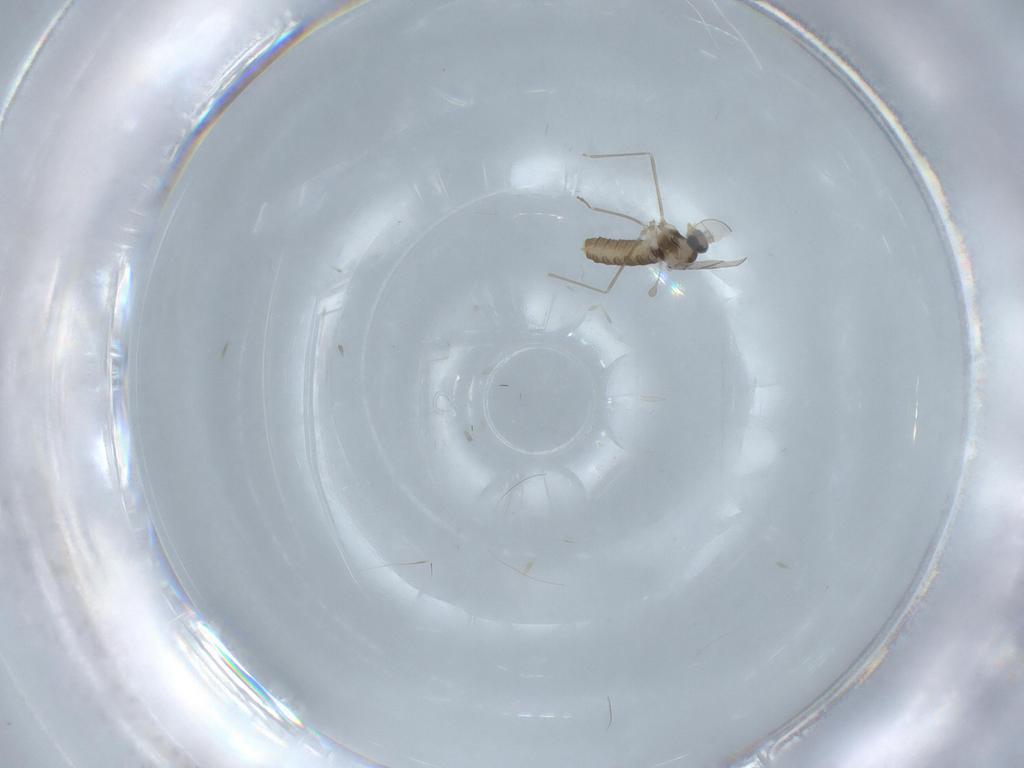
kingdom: Animalia
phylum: Arthropoda
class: Insecta
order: Diptera
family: Cecidomyiidae
